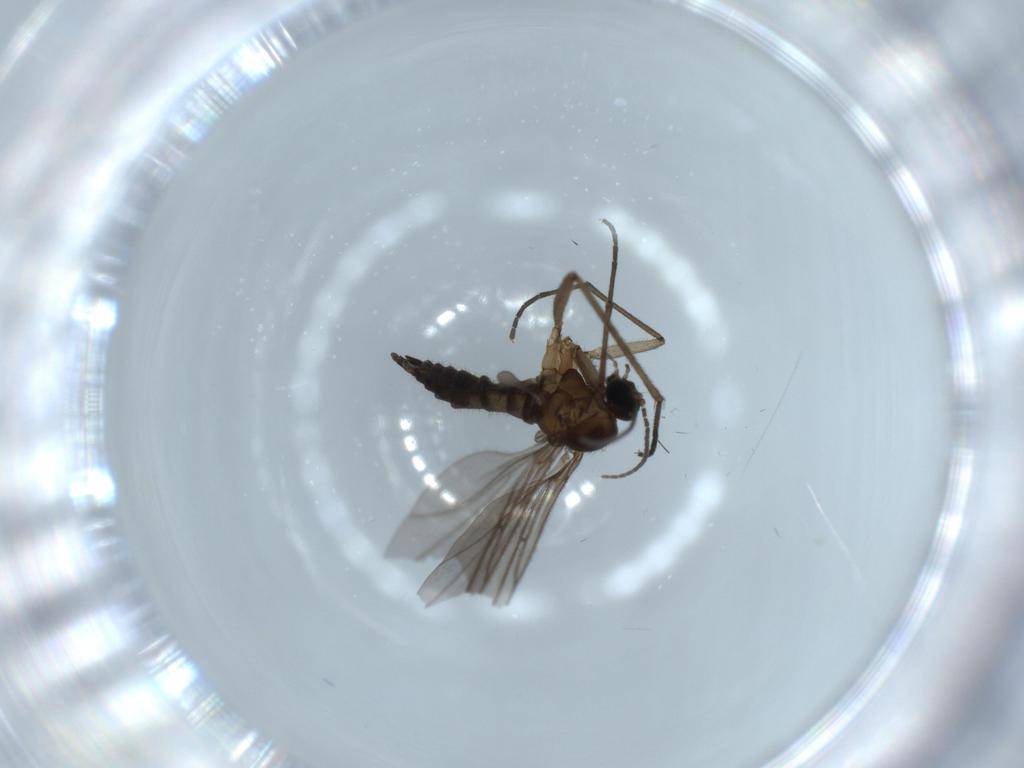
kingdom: Animalia
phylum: Arthropoda
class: Insecta
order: Diptera
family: Sciaridae
